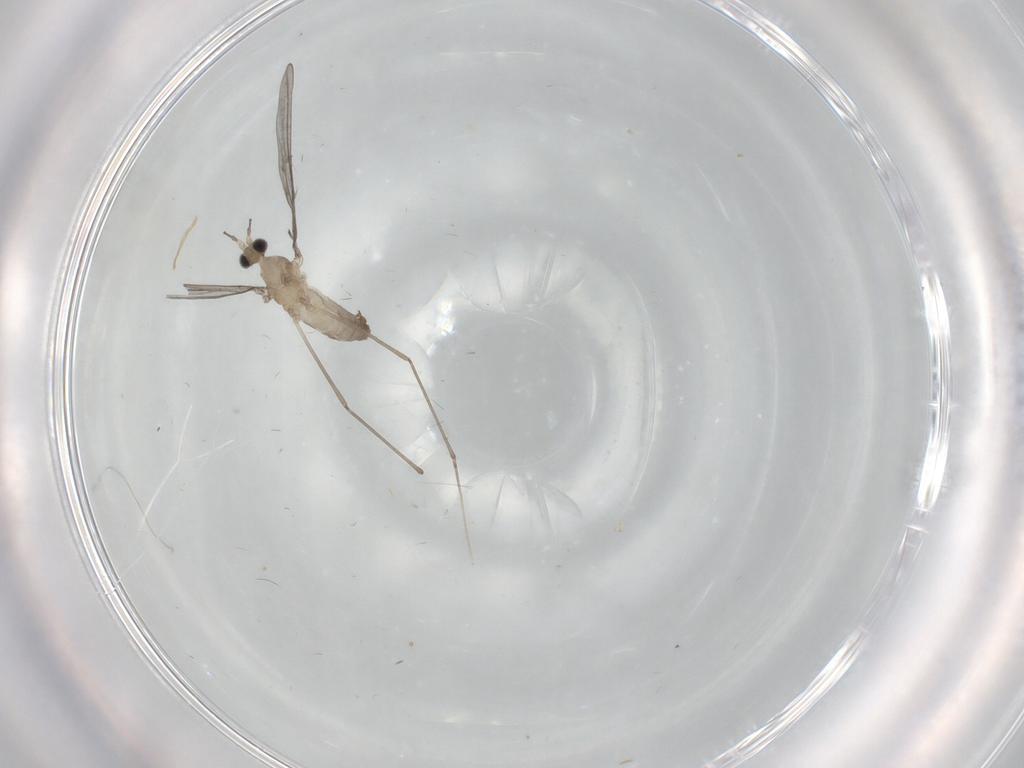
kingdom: Animalia
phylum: Arthropoda
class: Insecta
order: Diptera
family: Cecidomyiidae
